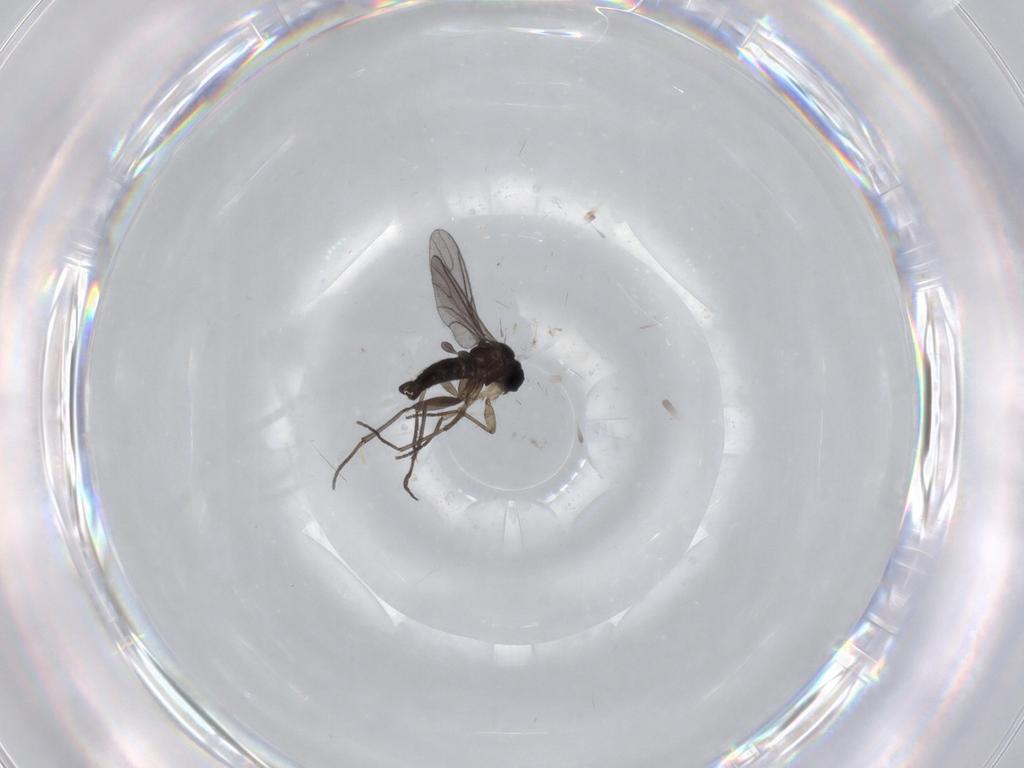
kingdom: Animalia
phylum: Arthropoda
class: Insecta
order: Diptera
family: Sciaridae
